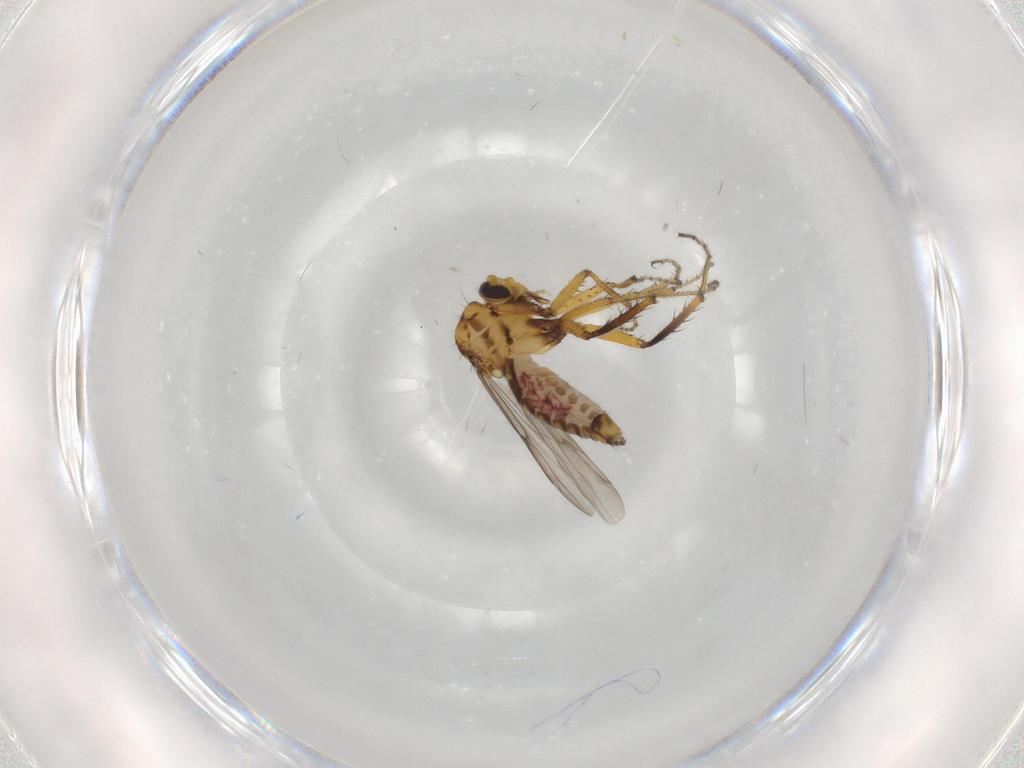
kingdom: Animalia
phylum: Arthropoda
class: Insecta
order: Diptera
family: Ceratopogonidae
